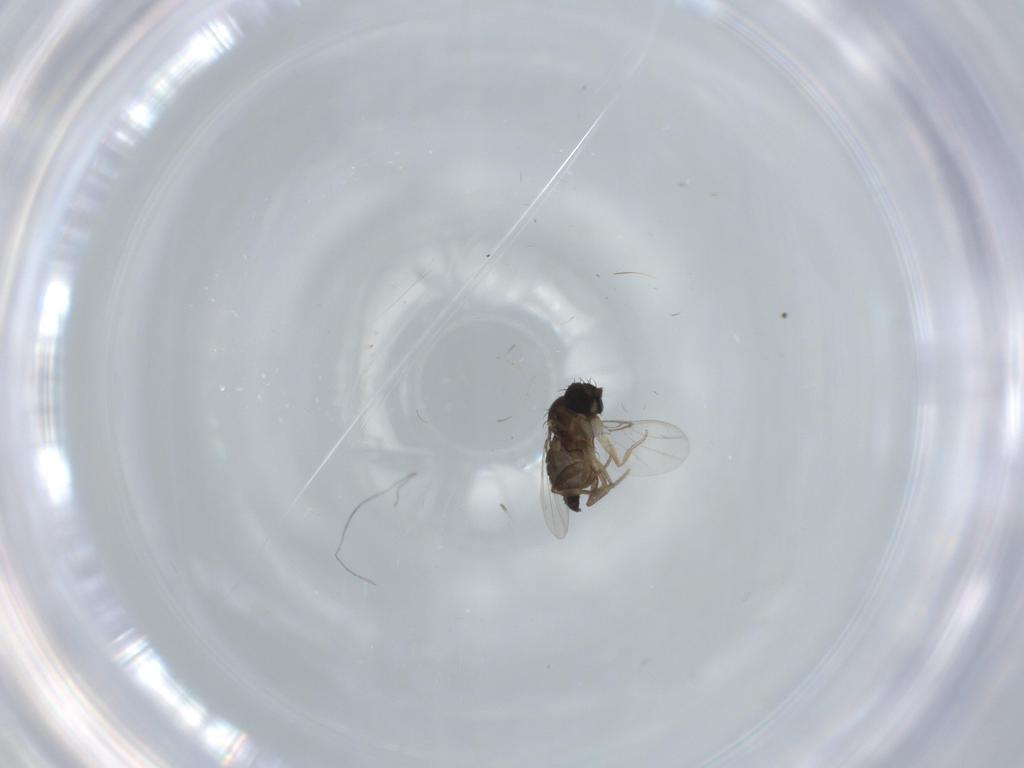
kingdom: Animalia
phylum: Arthropoda
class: Insecta
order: Diptera
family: Phoridae
